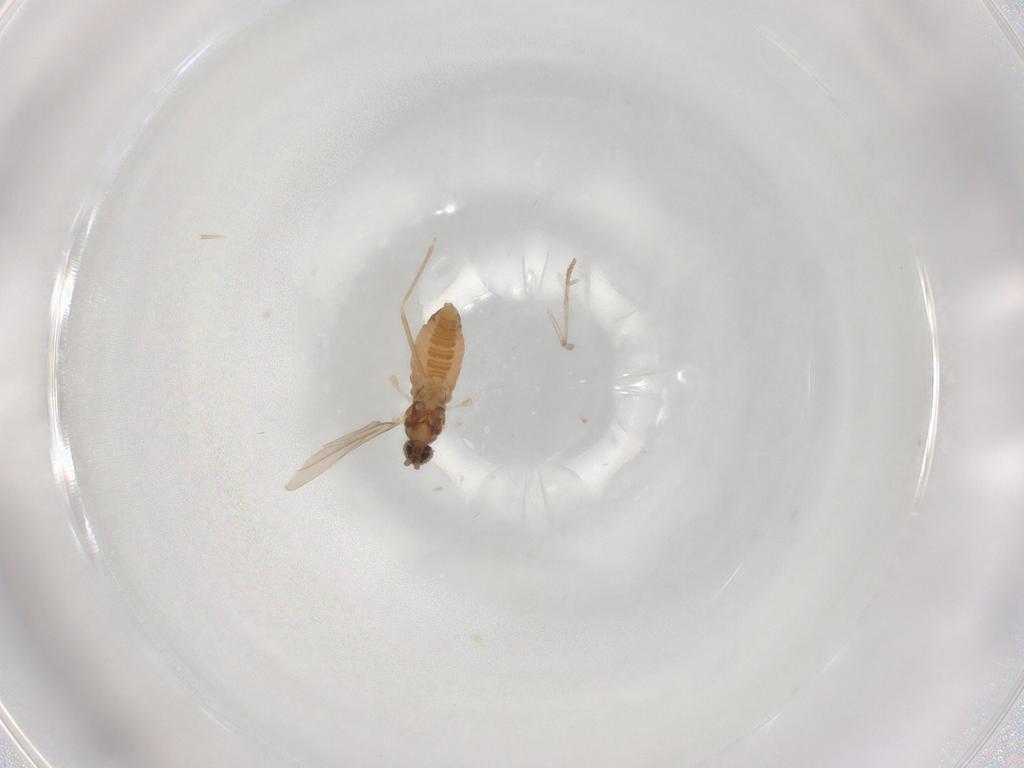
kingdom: Animalia
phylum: Arthropoda
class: Insecta
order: Diptera
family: Cecidomyiidae
